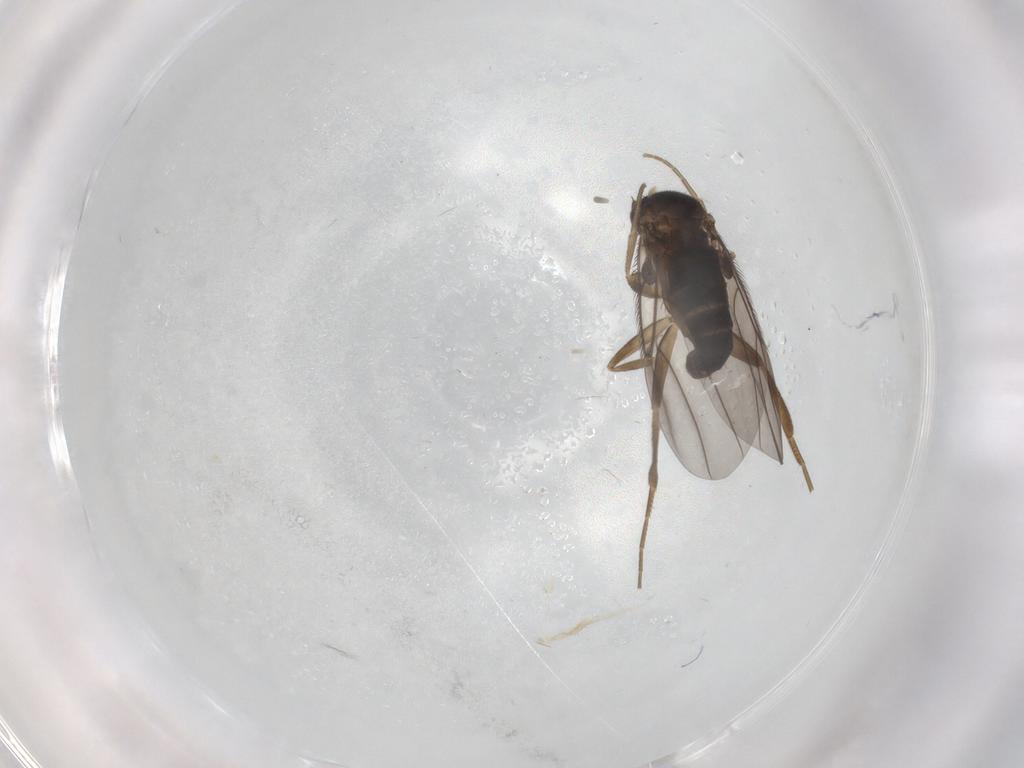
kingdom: Animalia
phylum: Arthropoda
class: Insecta
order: Diptera
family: Phoridae
